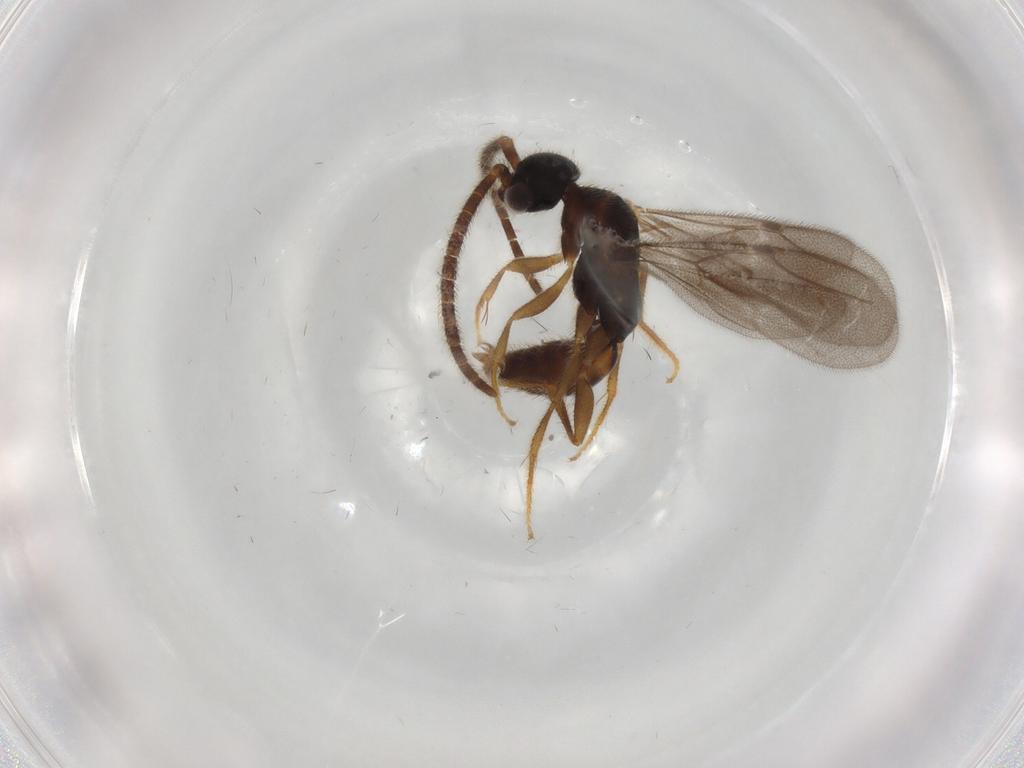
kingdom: Animalia
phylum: Arthropoda
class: Insecta
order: Hymenoptera
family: Bethylidae
